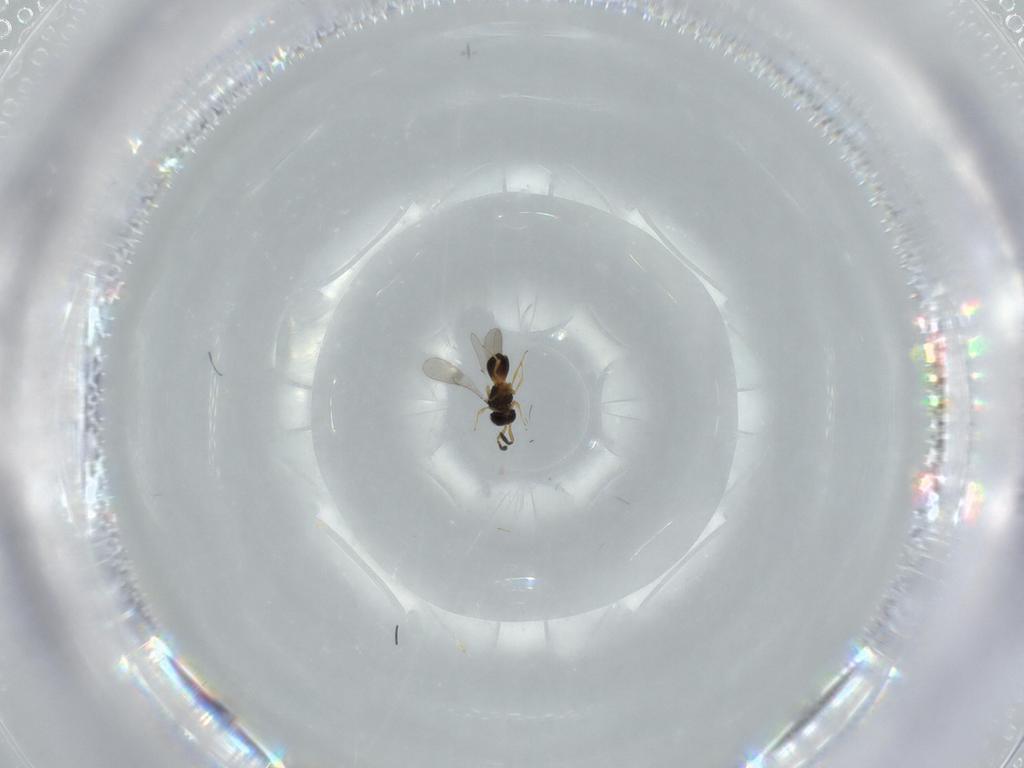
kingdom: Animalia
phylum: Arthropoda
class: Insecta
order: Hymenoptera
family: Scelionidae
